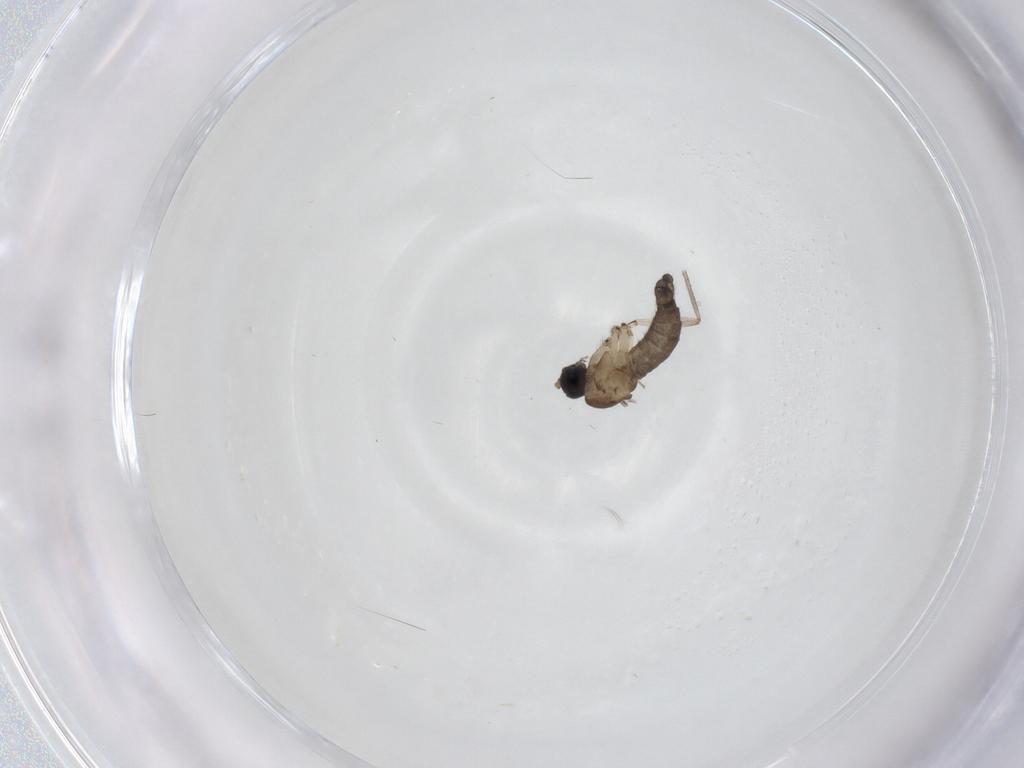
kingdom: Animalia
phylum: Arthropoda
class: Insecta
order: Diptera
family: Sciaridae
